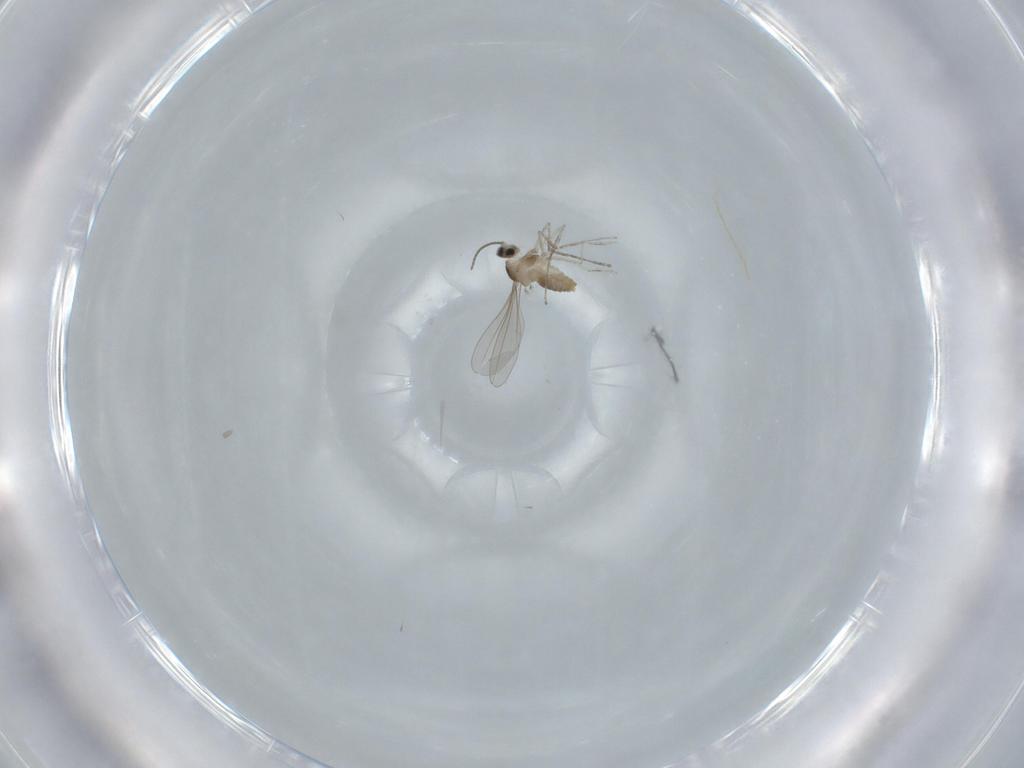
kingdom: Animalia
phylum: Arthropoda
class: Insecta
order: Diptera
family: Cecidomyiidae
